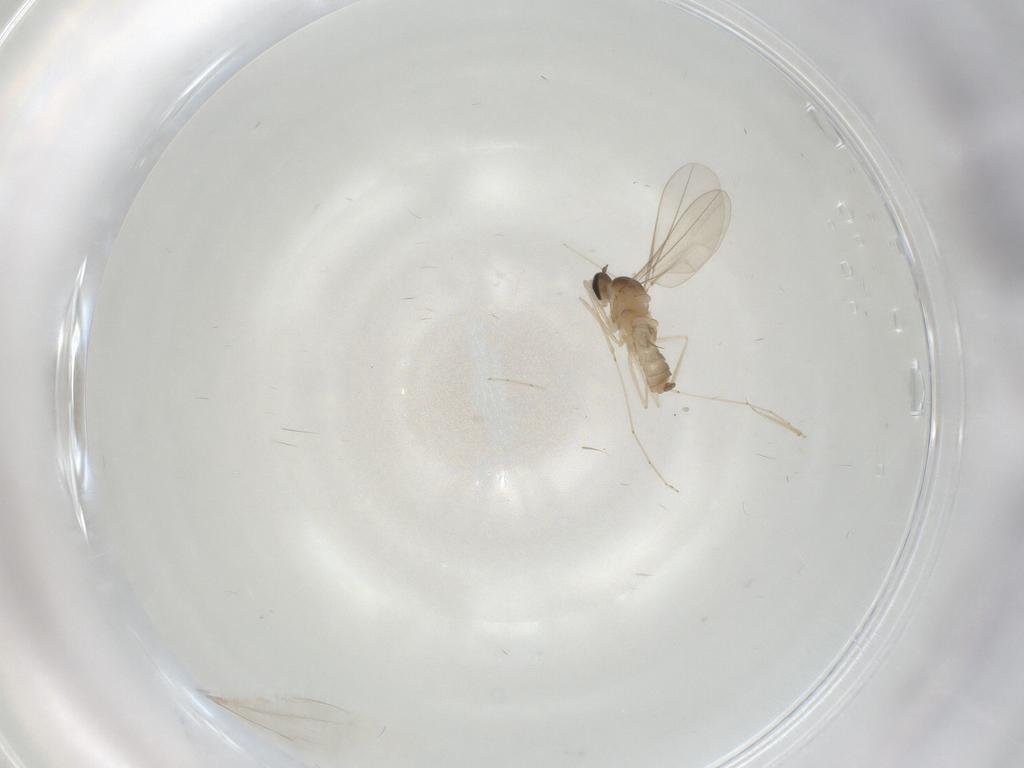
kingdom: Animalia
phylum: Arthropoda
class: Insecta
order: Diptera
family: Cecidomyiidae
